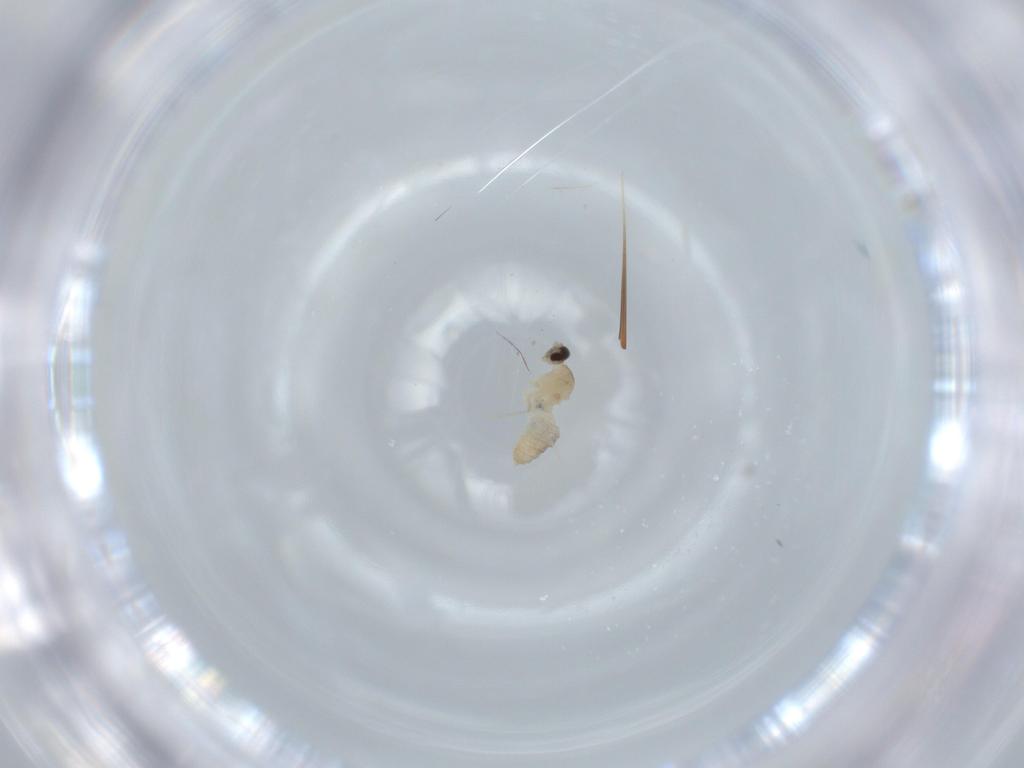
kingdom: Animalia
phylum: Arthropoda
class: Insecta
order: Diptera
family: Cecidomyiidae
